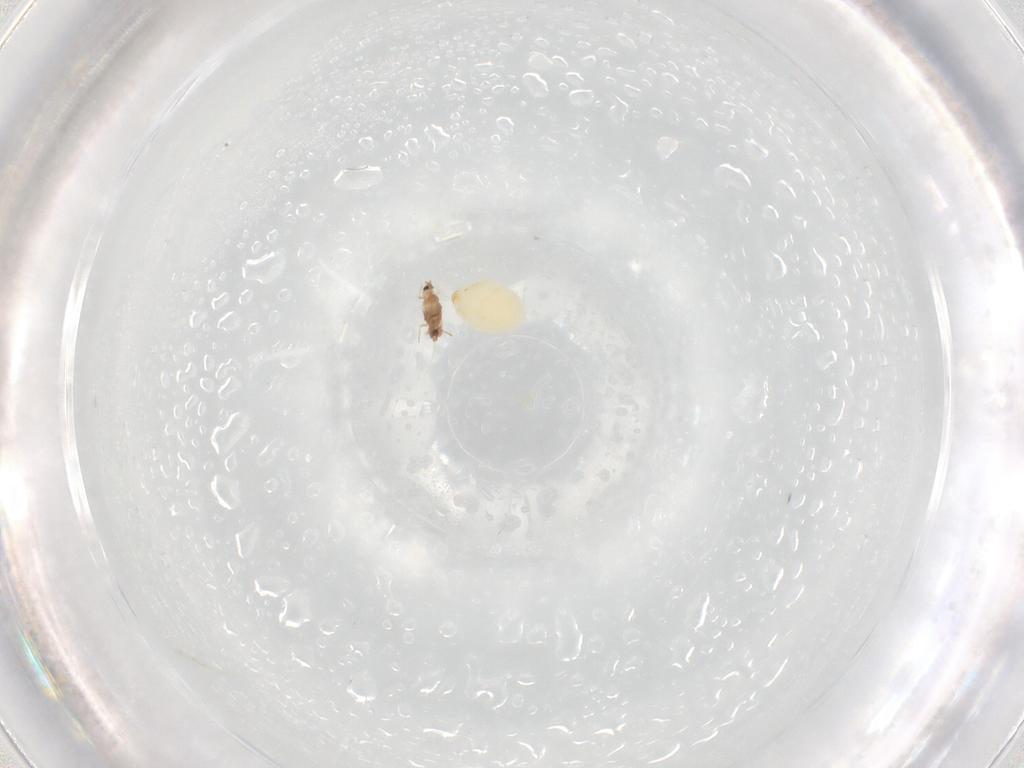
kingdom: Animalia
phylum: Arthropoda
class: Insecta
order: Hemiptera
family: Coccoidea_incertae_sedis
